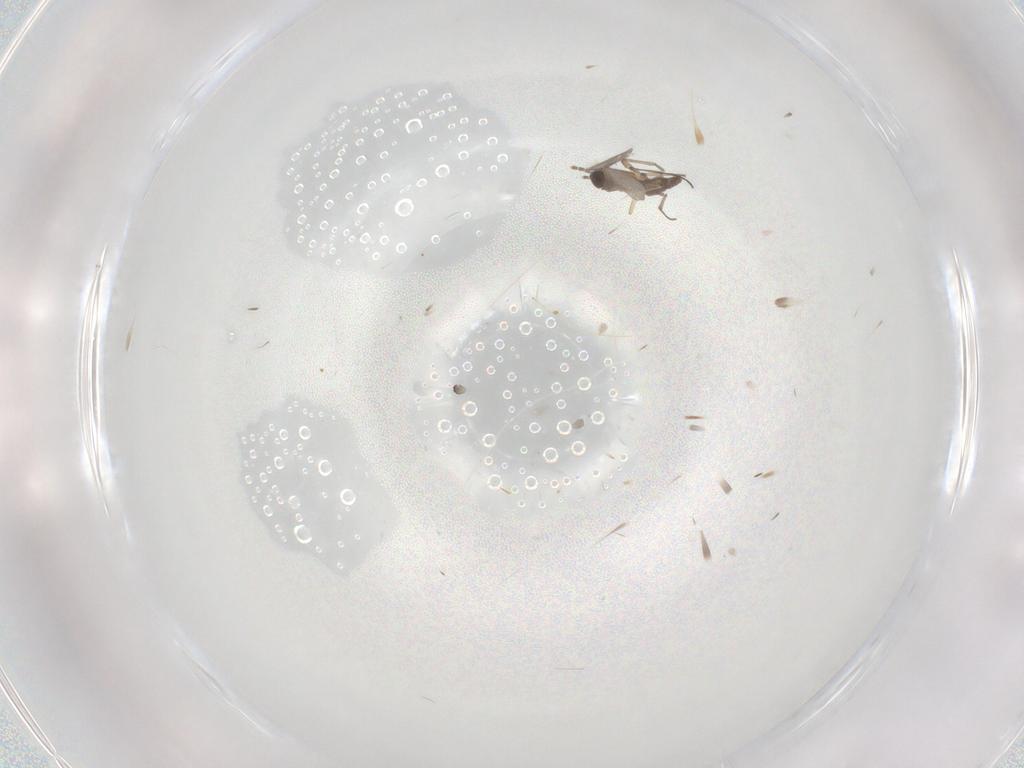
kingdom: Animalia
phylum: Arthropoda
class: Insecta
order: Diptera
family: Sciaridae
